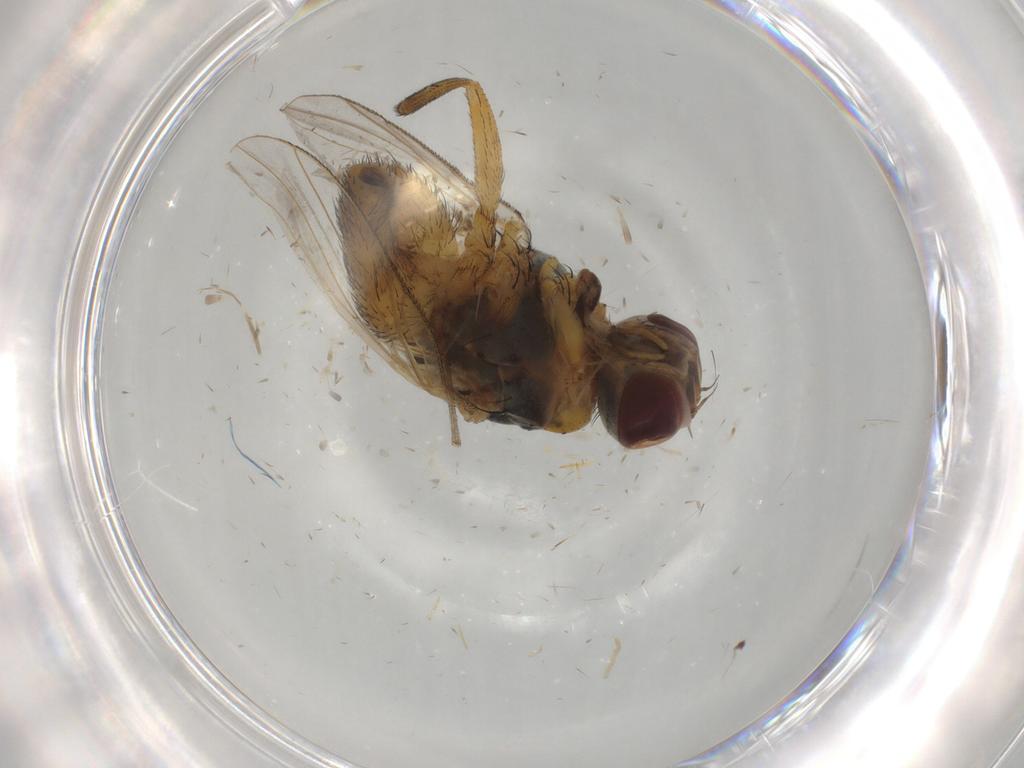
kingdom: Animalia
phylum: Arthropoda
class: Insecta
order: Diptera
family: Muscidae
